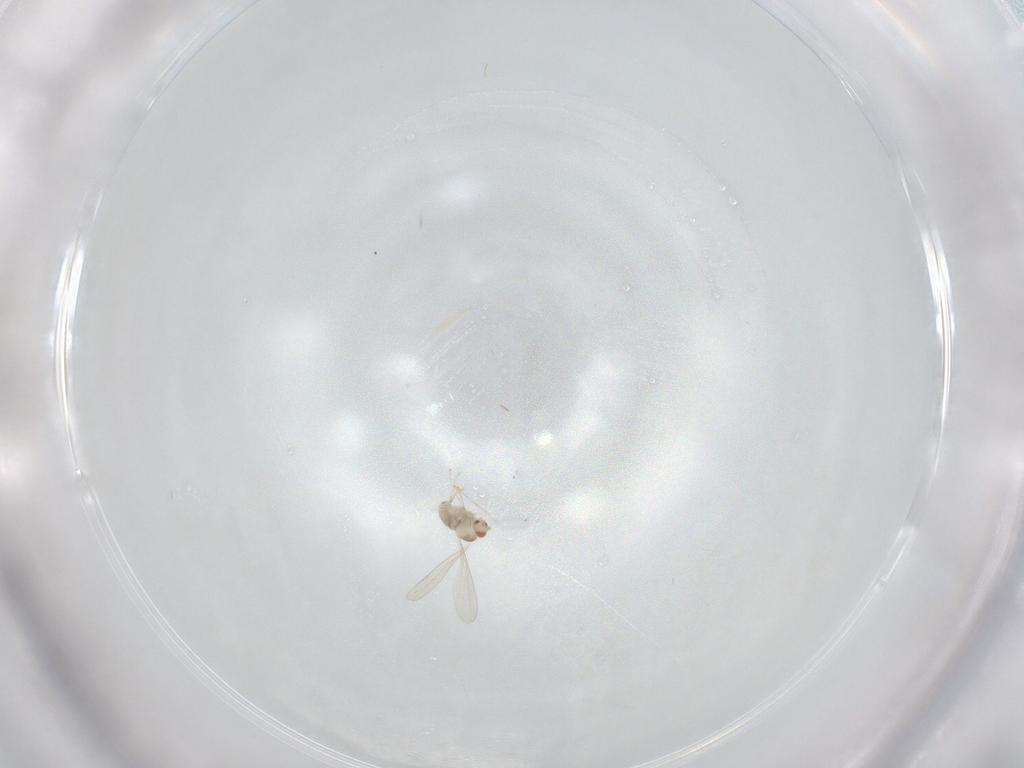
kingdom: Animalia
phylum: Arthropoda
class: Insecta
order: Diptera
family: Cecidomyiidae
